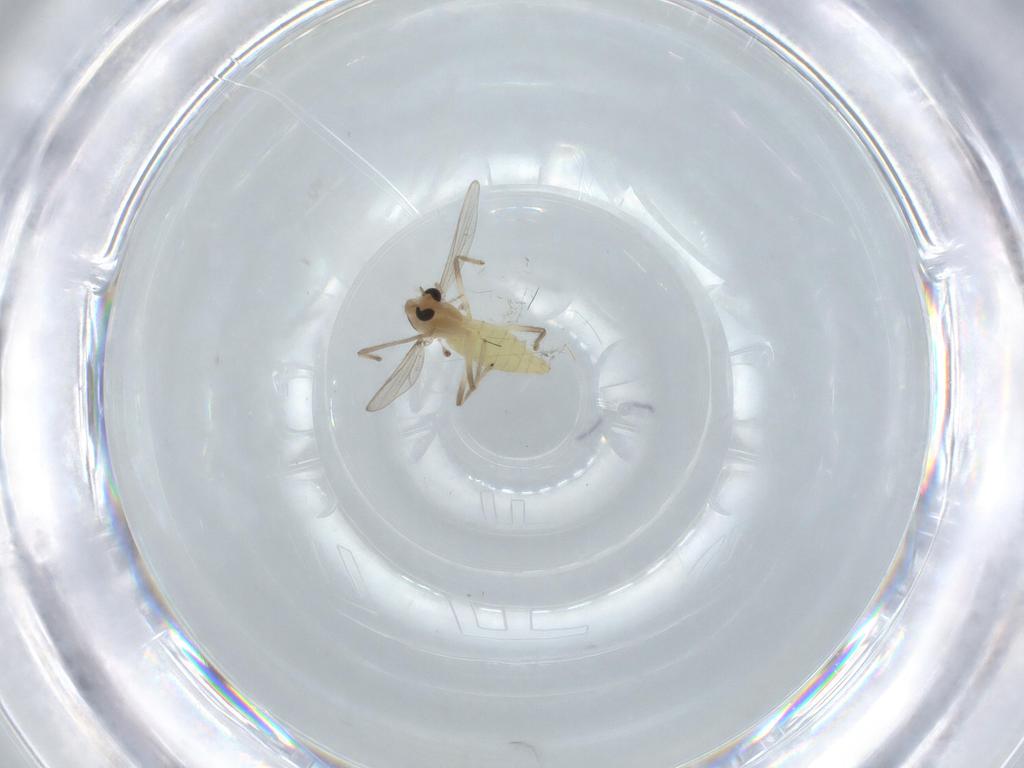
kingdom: Animalia
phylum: Arthropoda
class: Insecta
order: Diptera
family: Chironomidae
